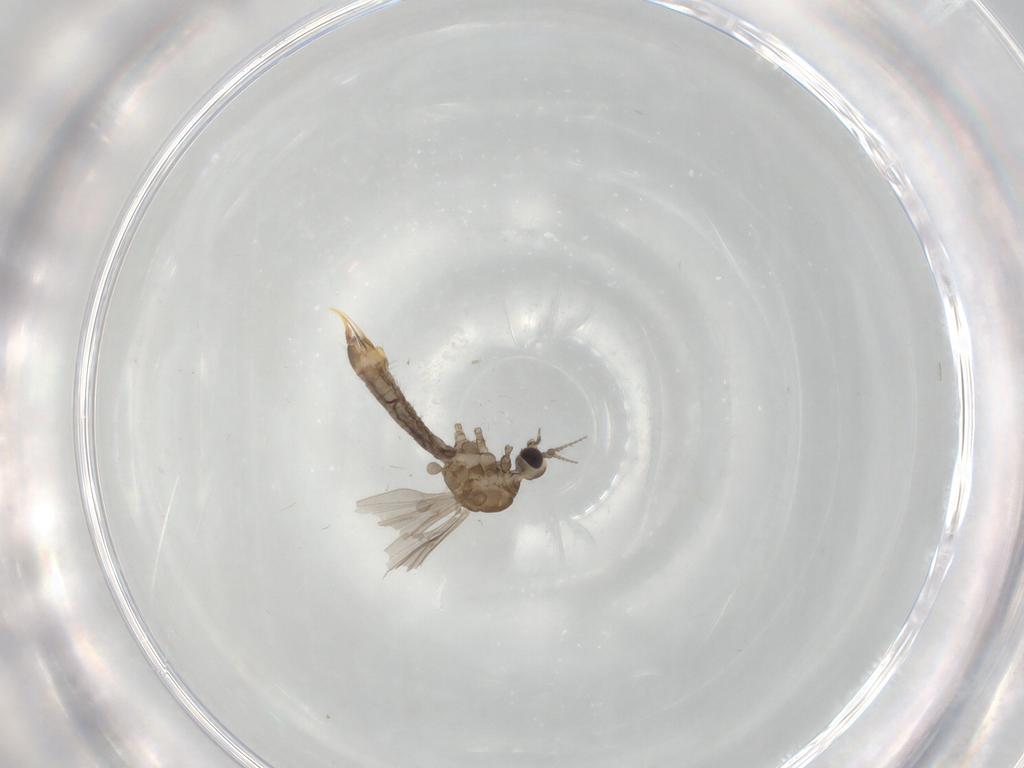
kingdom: Animalia
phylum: Arthropoda
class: Insecta
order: Diptera
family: Limoniidae
